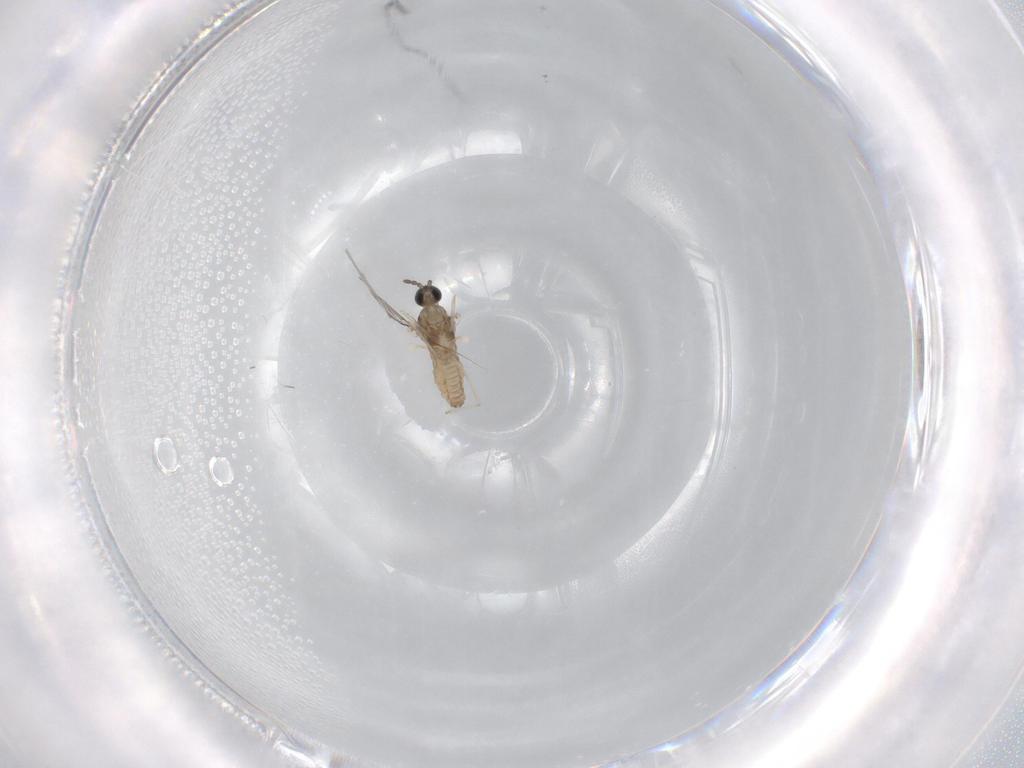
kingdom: Animalia
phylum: Arthropoda
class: Insecta
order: Diptera
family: Cecidomyiidae
